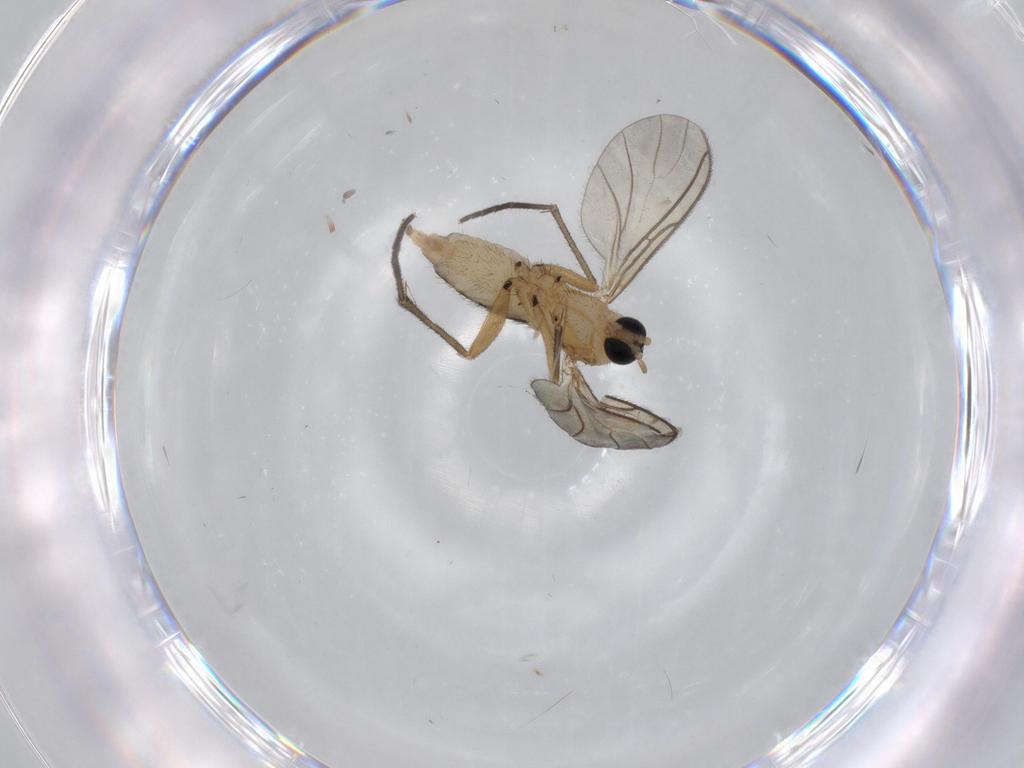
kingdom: Animalia
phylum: Arthropoda
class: Insecta
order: Diptera
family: Sciaridae
